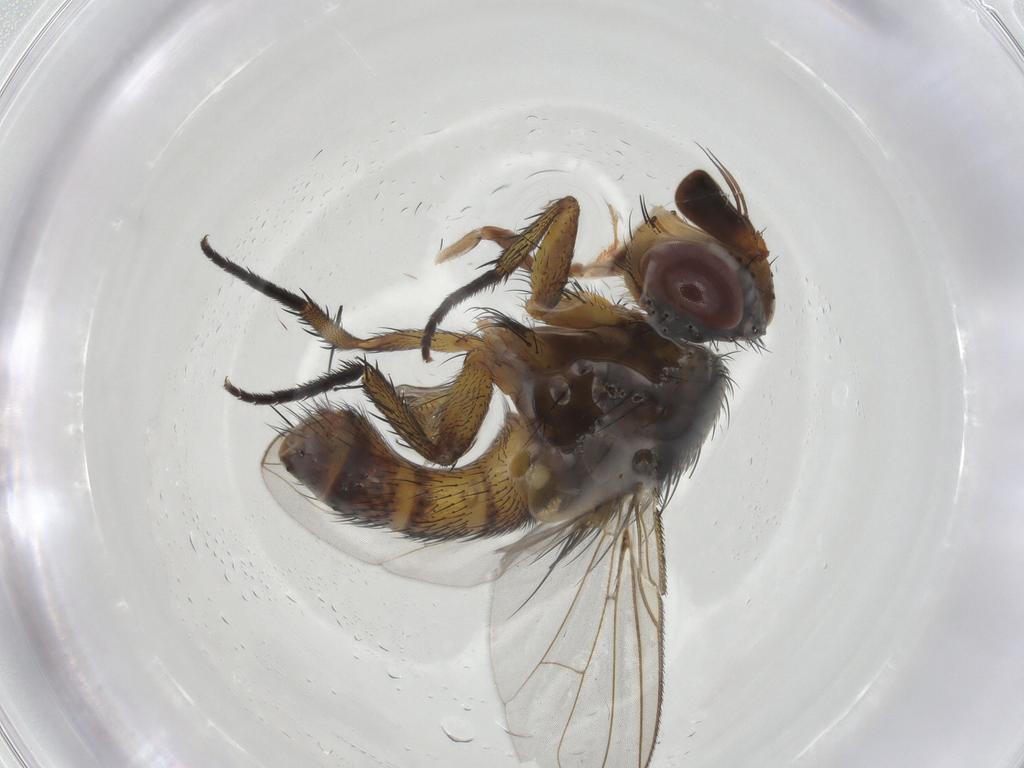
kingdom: Animalia
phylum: Arthropoda
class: Insecta
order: Diptera
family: Tachinidae
